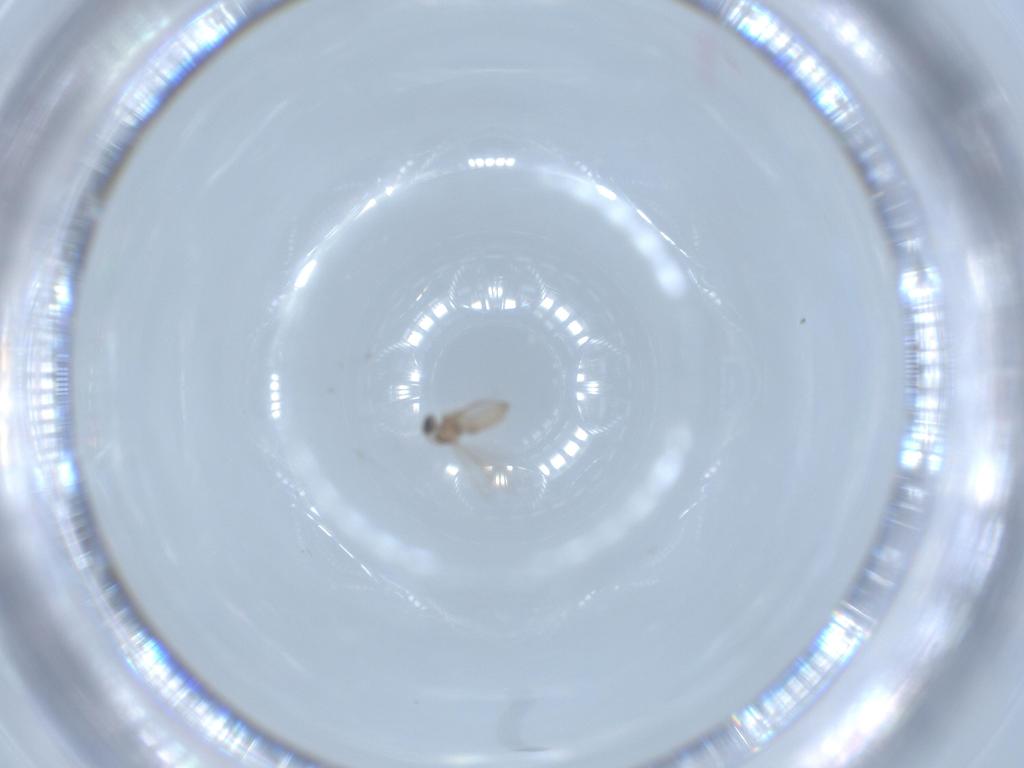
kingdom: Animalia
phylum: Arthropoda
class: Insecta
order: Diptera
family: Cecidomyiidae
